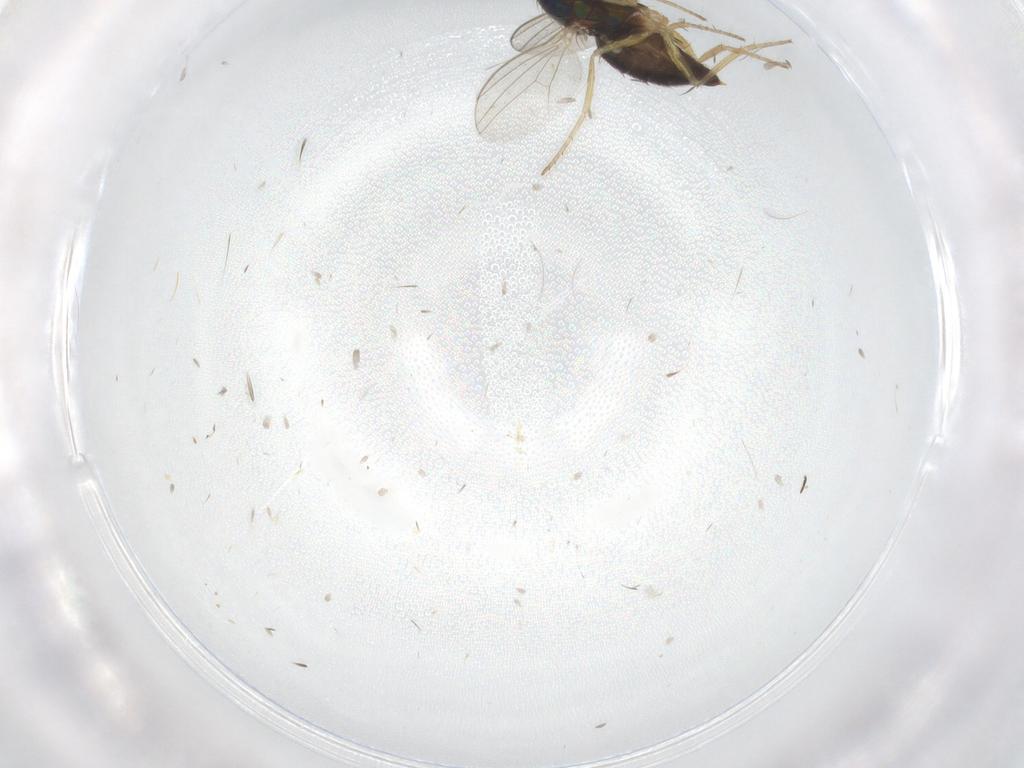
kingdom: Animalia
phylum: Arthropoda
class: Insecta
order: Diptera
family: Dolichopodidae
